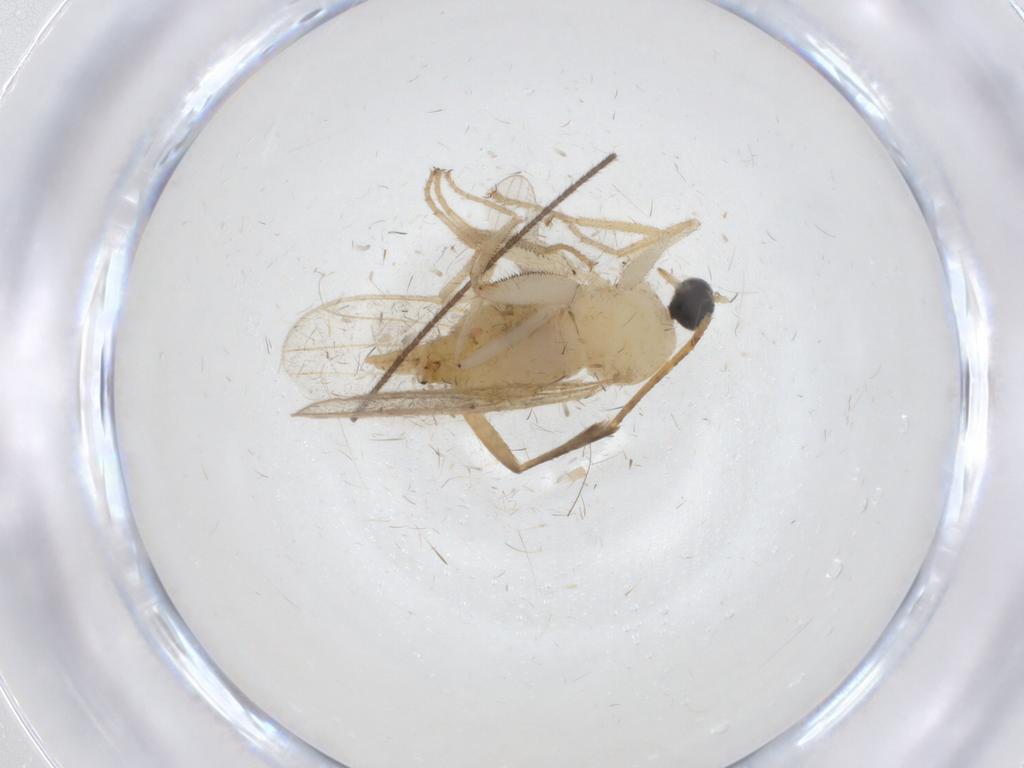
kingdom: Animalia
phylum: Arthropoda
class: Insecta
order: Diptera
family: Hybotidae
